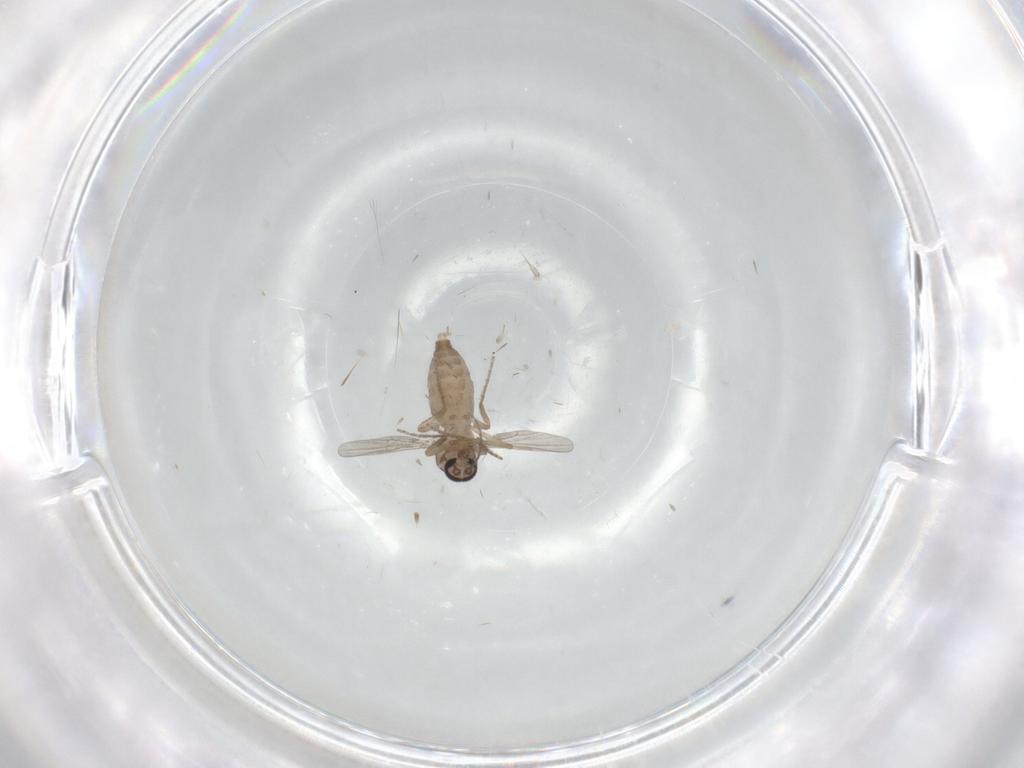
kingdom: Animalia
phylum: Arthropoda
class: Insecta
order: Diptera
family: Ceratopogonidae
